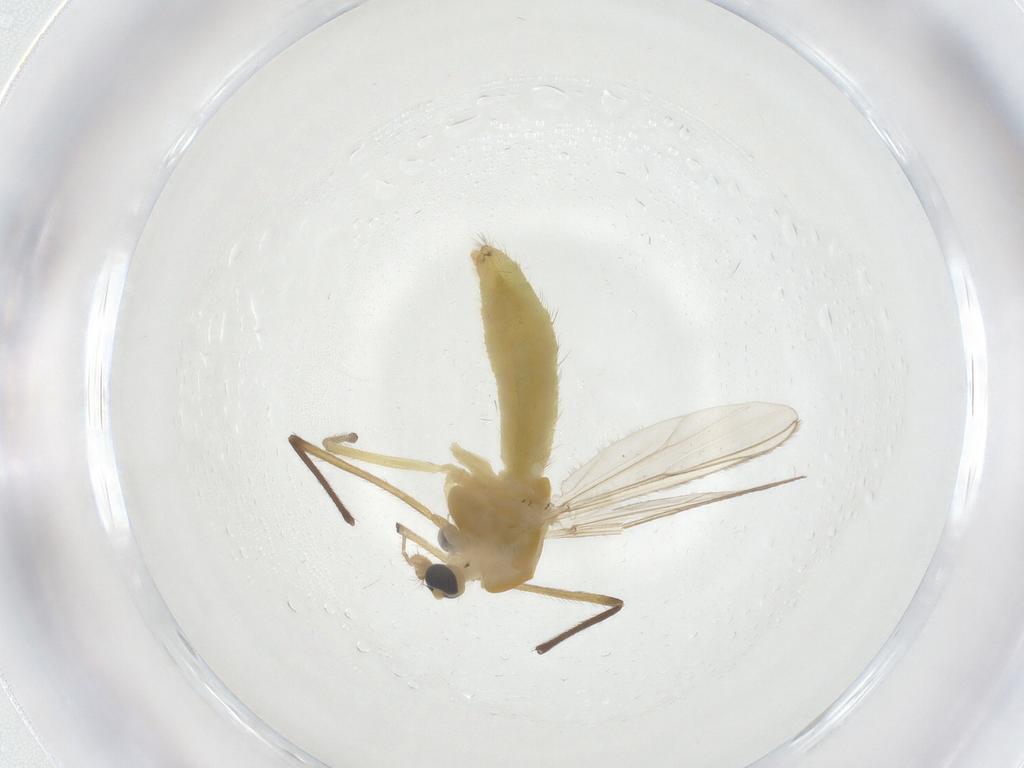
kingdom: Animalia
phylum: Arthropoda
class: Insecta
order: Diptera
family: Chironomidae
